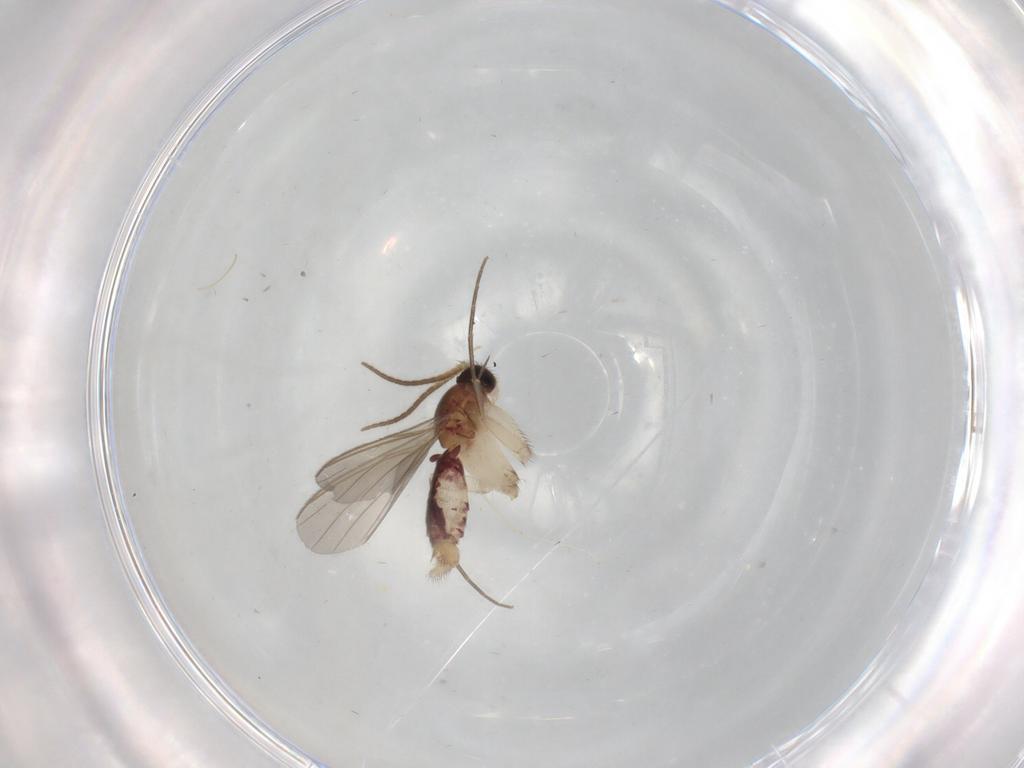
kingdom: Animalia
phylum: Arthropoda
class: Insecta
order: Diptera
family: Mycetophilidae
